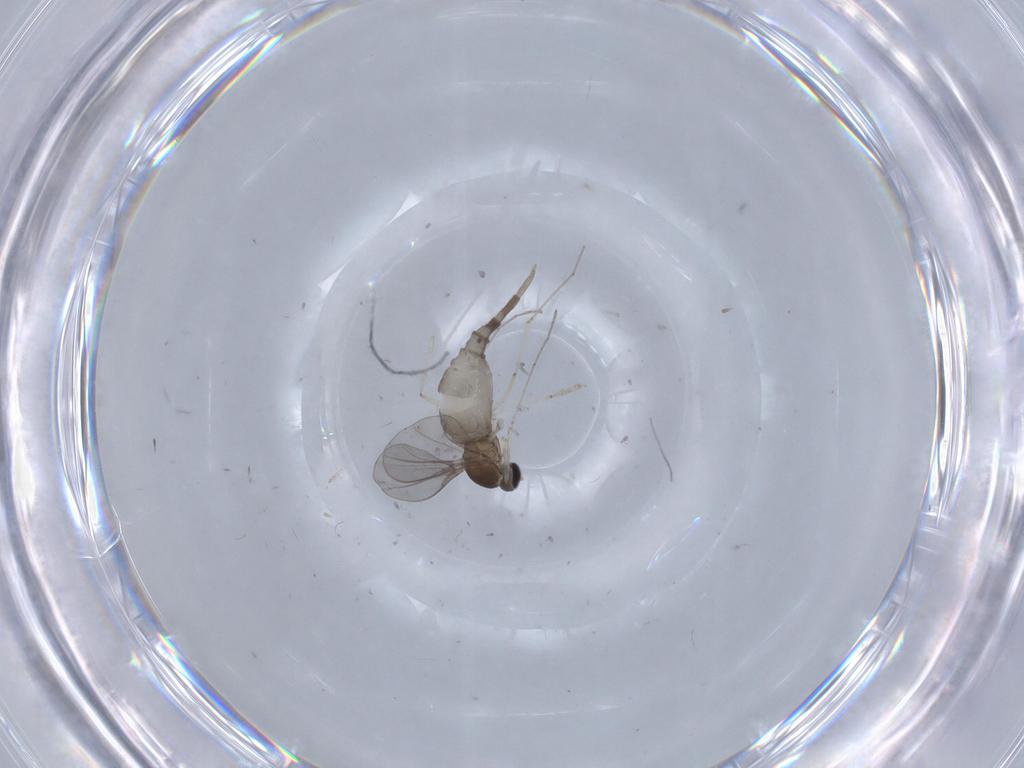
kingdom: Animalia
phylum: Arthropoda
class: Insecta
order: Diptera
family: Cecidomyiidae
